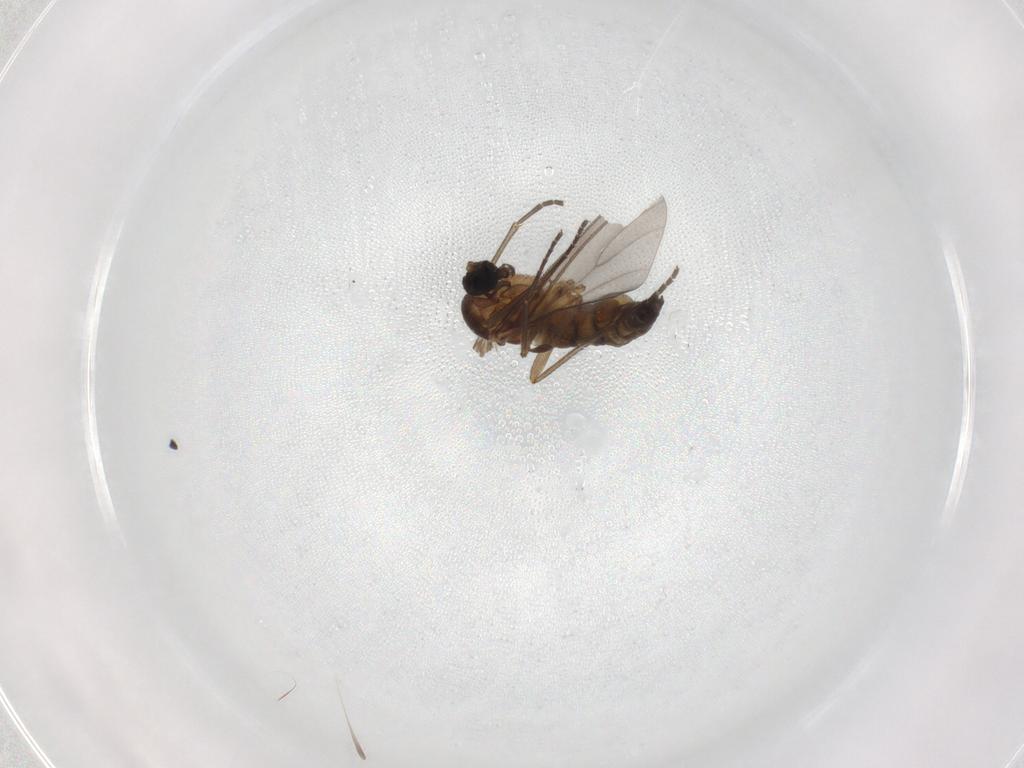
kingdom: Animalia
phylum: Arthropoda
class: Insecta
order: Diptera
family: Sciaridae
